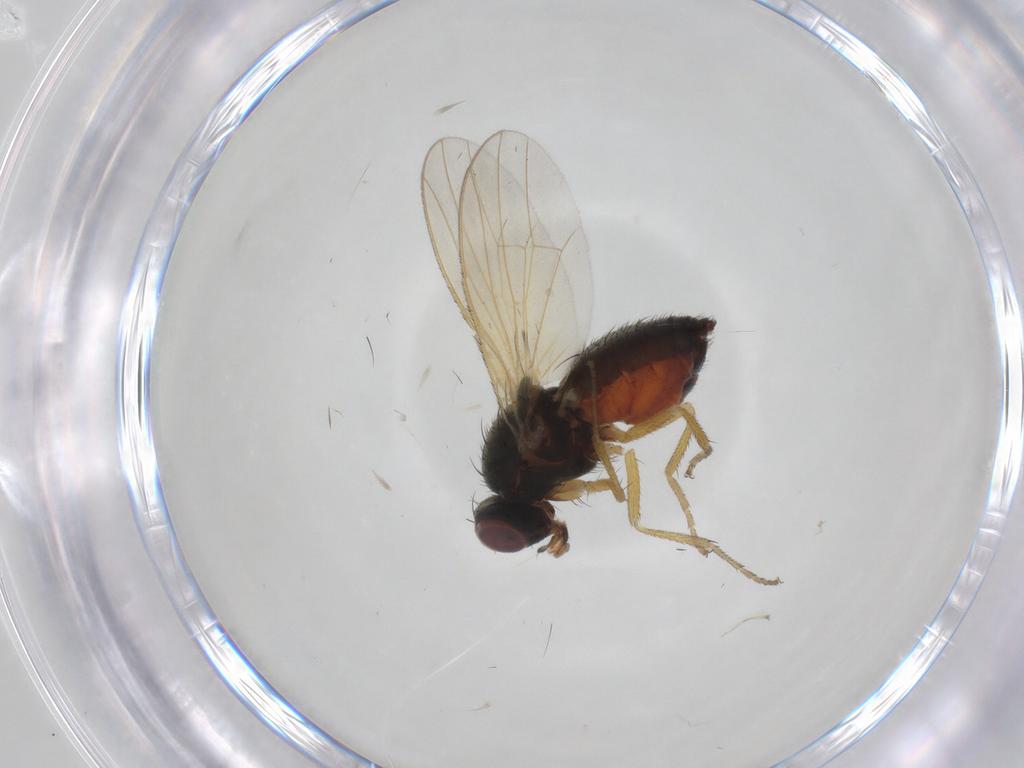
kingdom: Animalia
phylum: Arthropoda
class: Insecta
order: Diptera
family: Heleomyzidae
